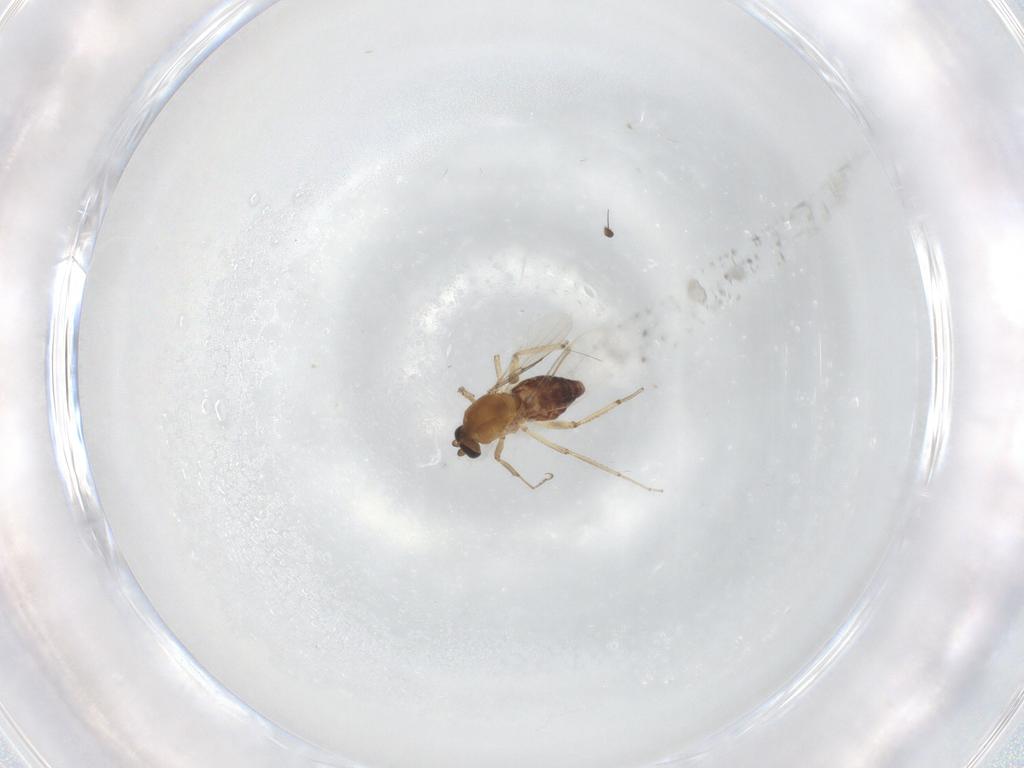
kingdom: Animalia
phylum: Arthropoda
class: Insecta
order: Diptera
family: Ceratopogonidae
